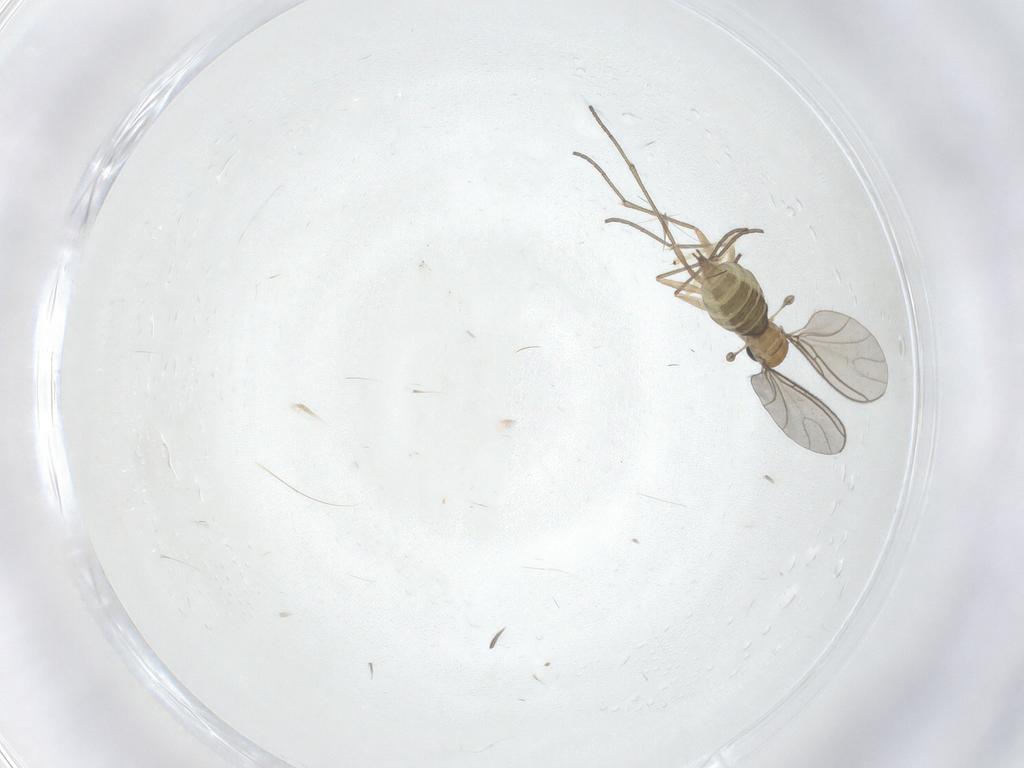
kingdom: Animalia
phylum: Arthropoda
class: Insecta
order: Diptera
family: Sciaridae
